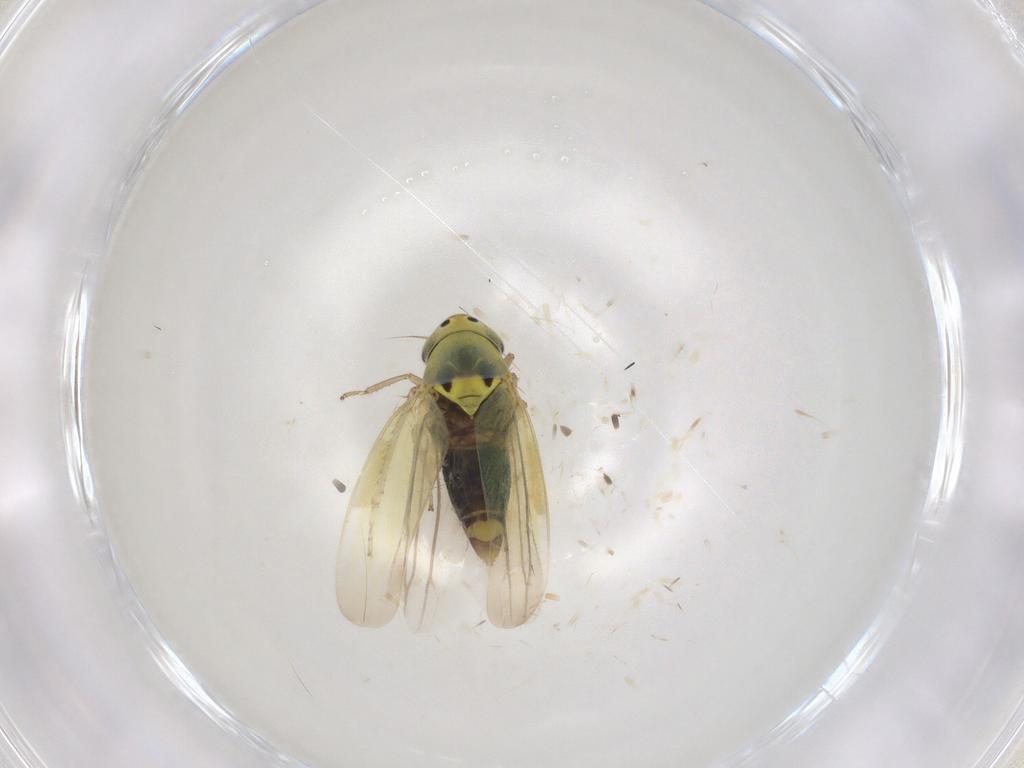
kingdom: Animalia
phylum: Arthropoda
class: Insecta
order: Hemiptera
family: Cicadellidae
